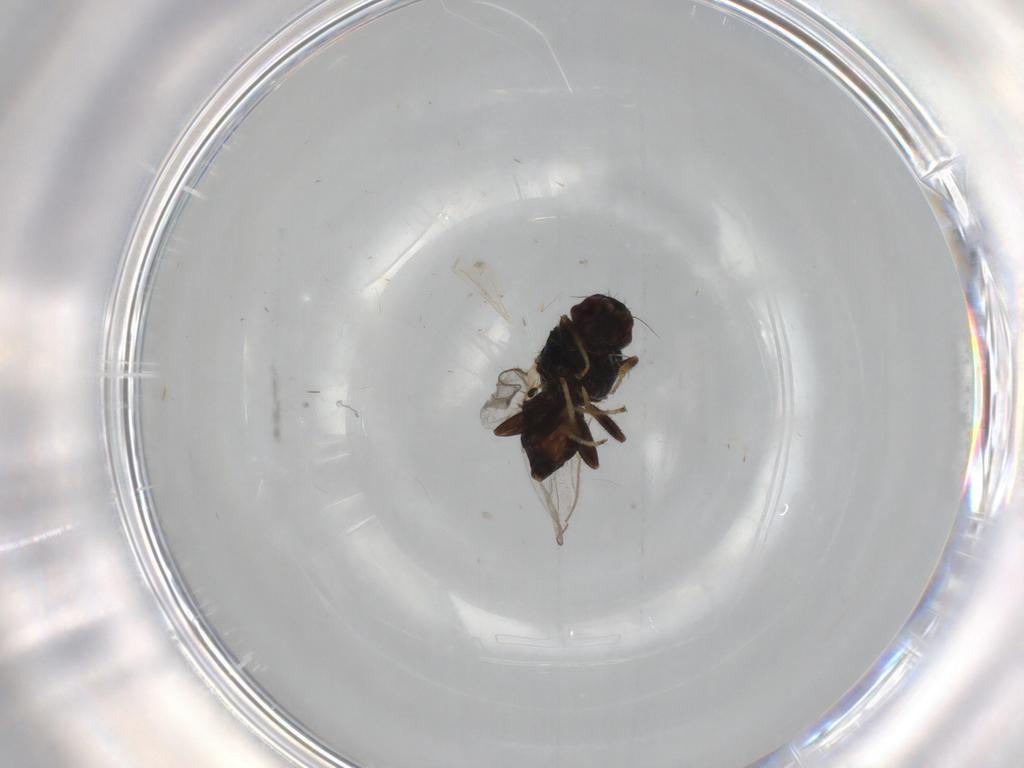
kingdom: Animalia
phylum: Arthropoda
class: Insecta
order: Diptera
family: Chloropidae
